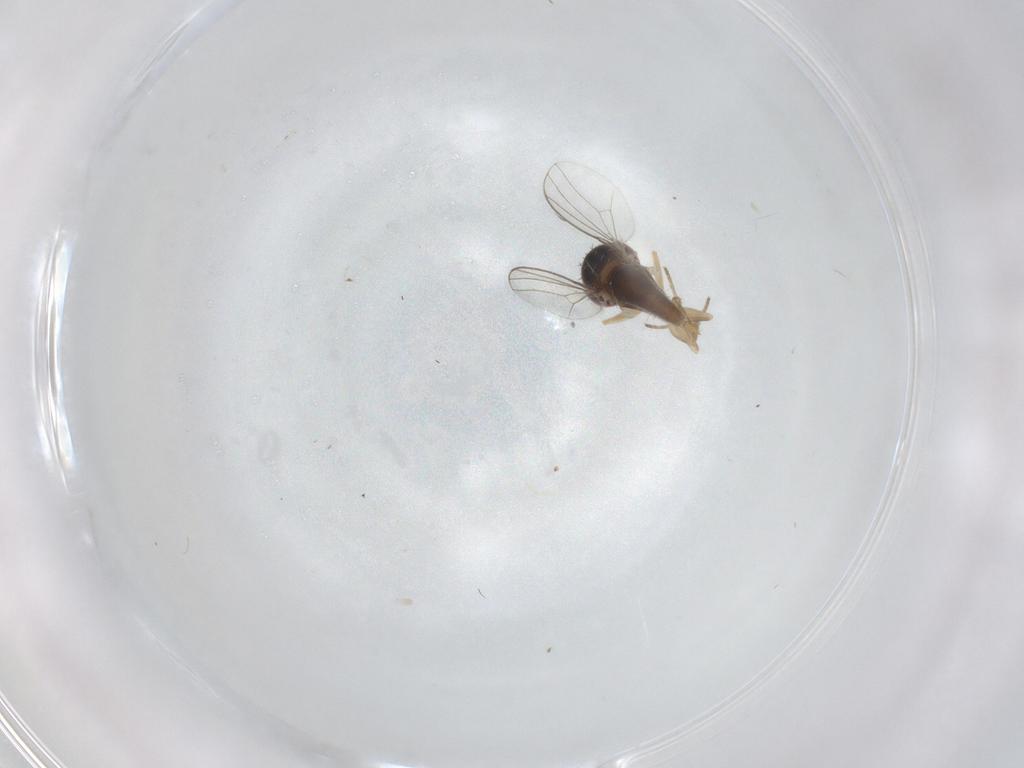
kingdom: Animalia
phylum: Arthropoda
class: Insecta
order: Diptera
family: Dolichopodidae
